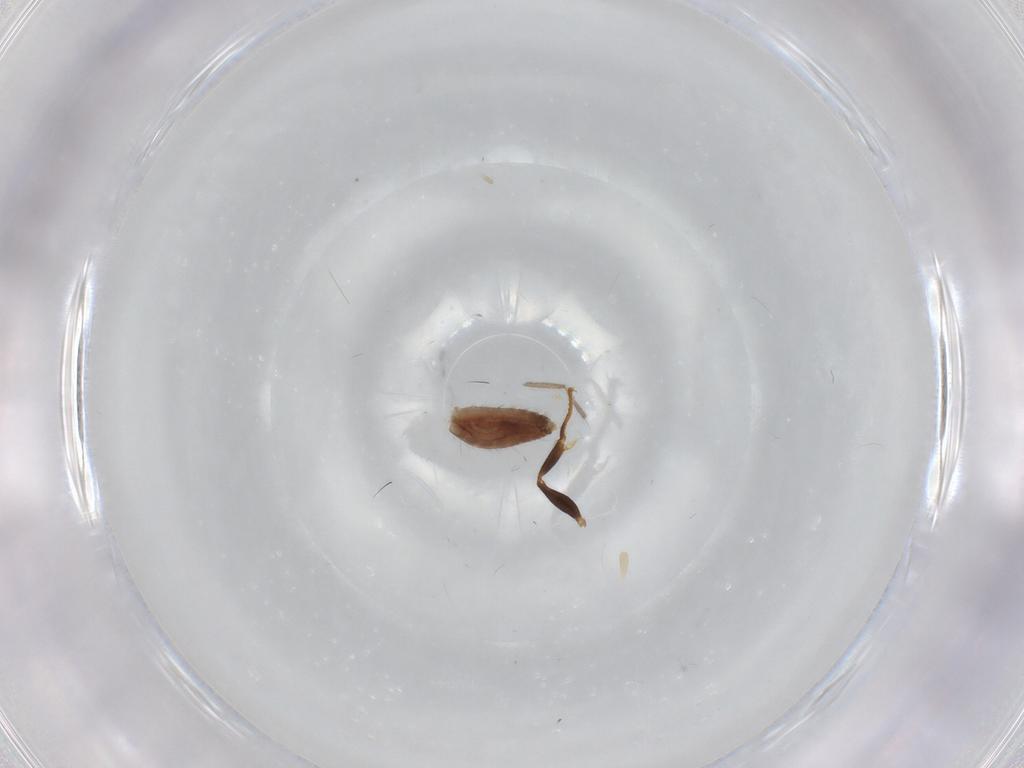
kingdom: Animalia
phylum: Arthropoda
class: Insecta
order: Diptera
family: Chironomidae
